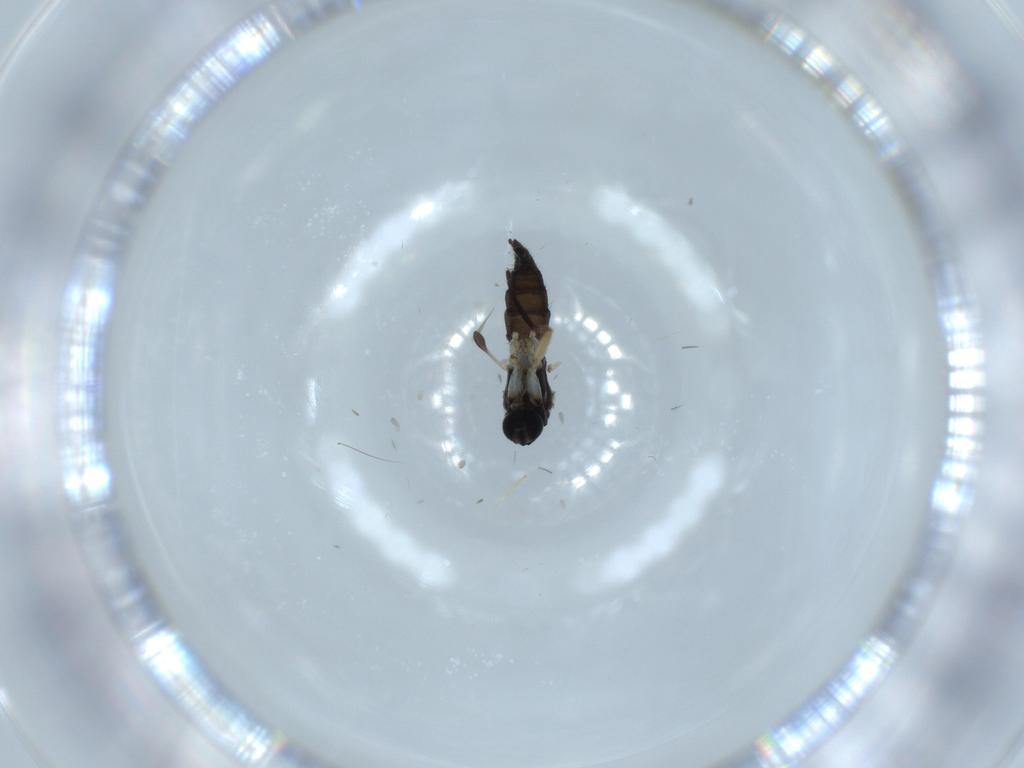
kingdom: Animalia
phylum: Arthropoda
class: Insecta
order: Diptera
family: Sciaridae
